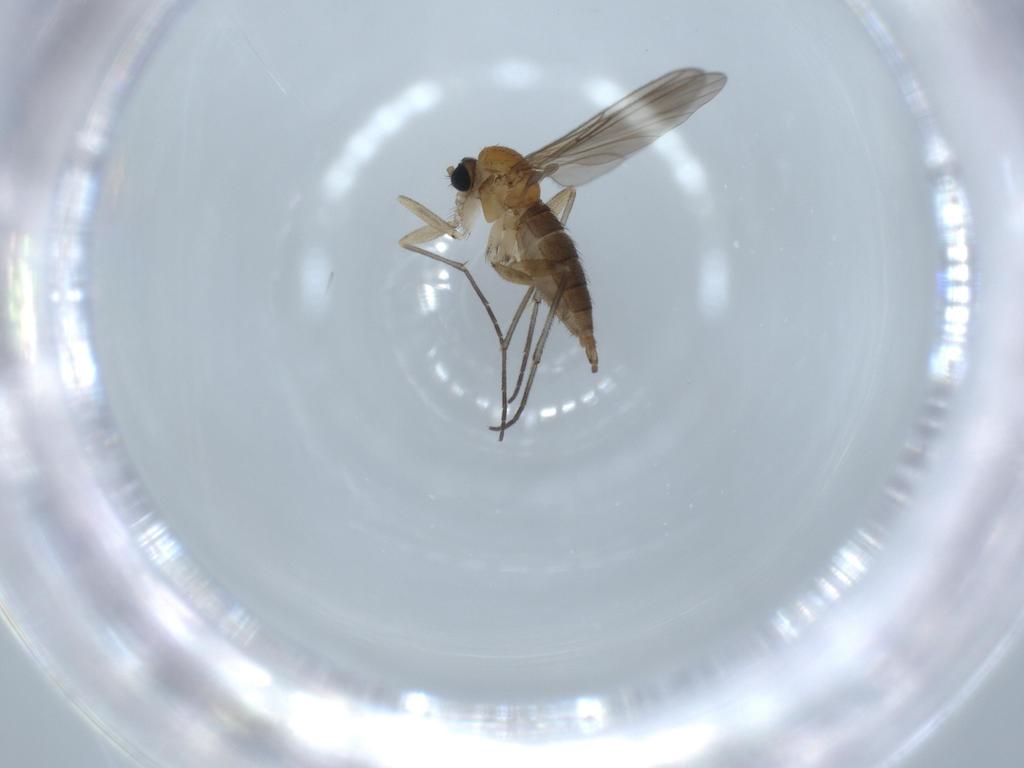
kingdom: Animalia
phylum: Arthropoda
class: Insecta
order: Diptera
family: Sciaridae
